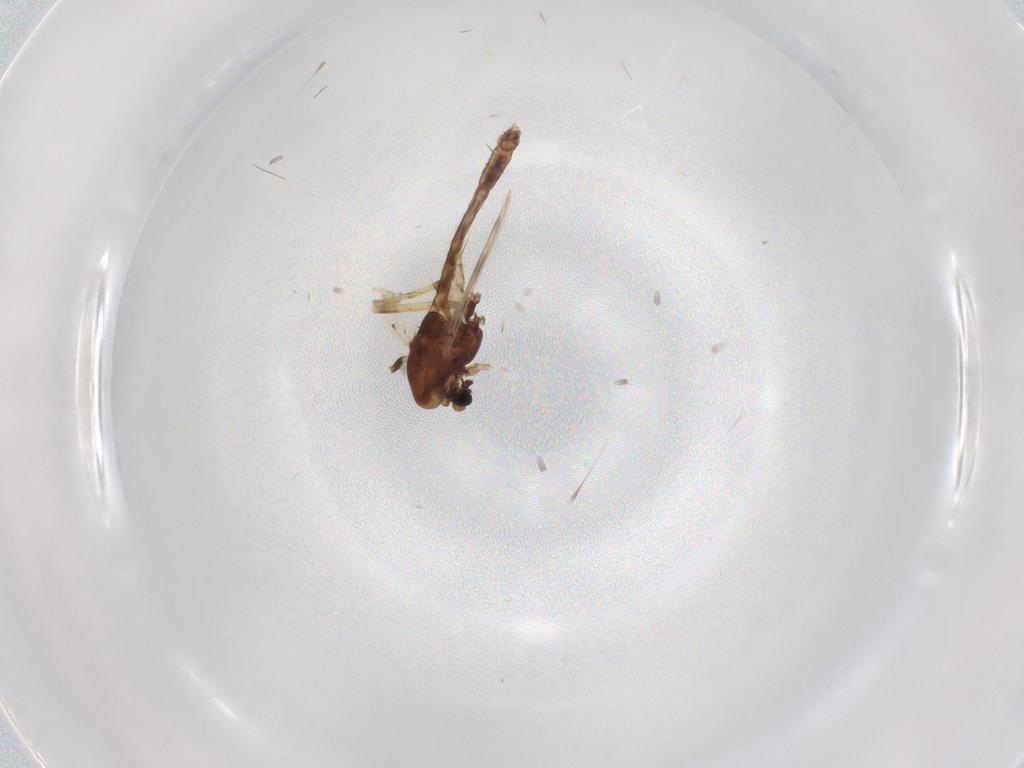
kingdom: Animalia
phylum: Arthropoda
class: Insecta
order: Diptera
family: Chironomidae
